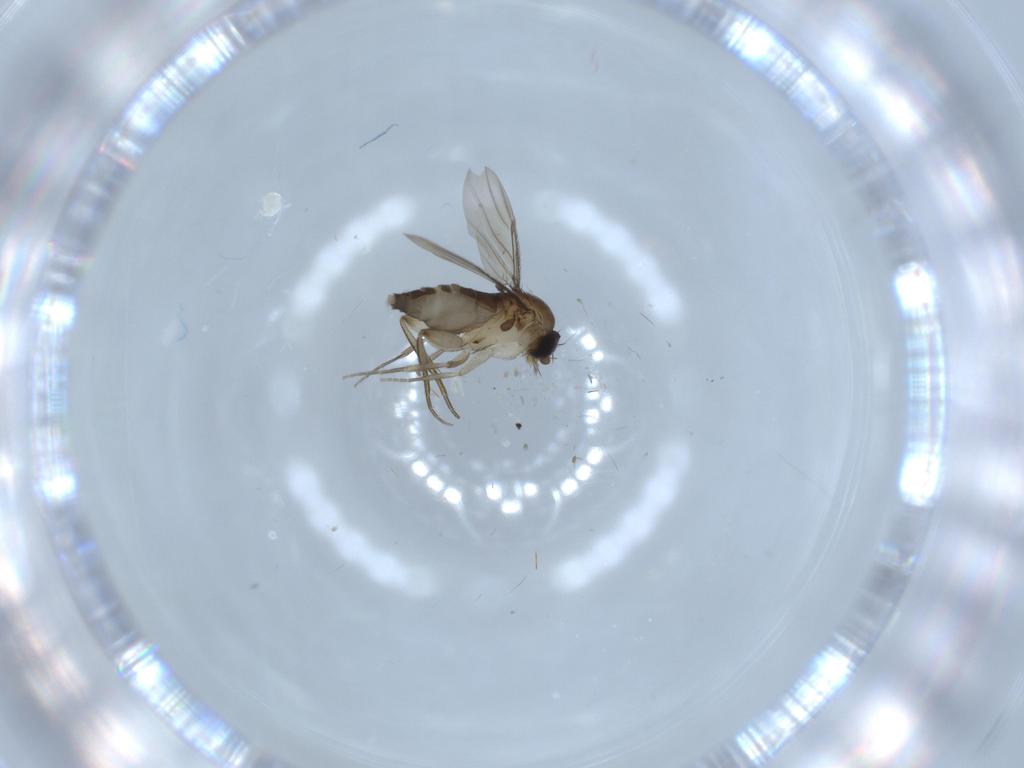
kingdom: Animalia
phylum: Arthropoda
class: Insecta
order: Diptera
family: Phoridae
